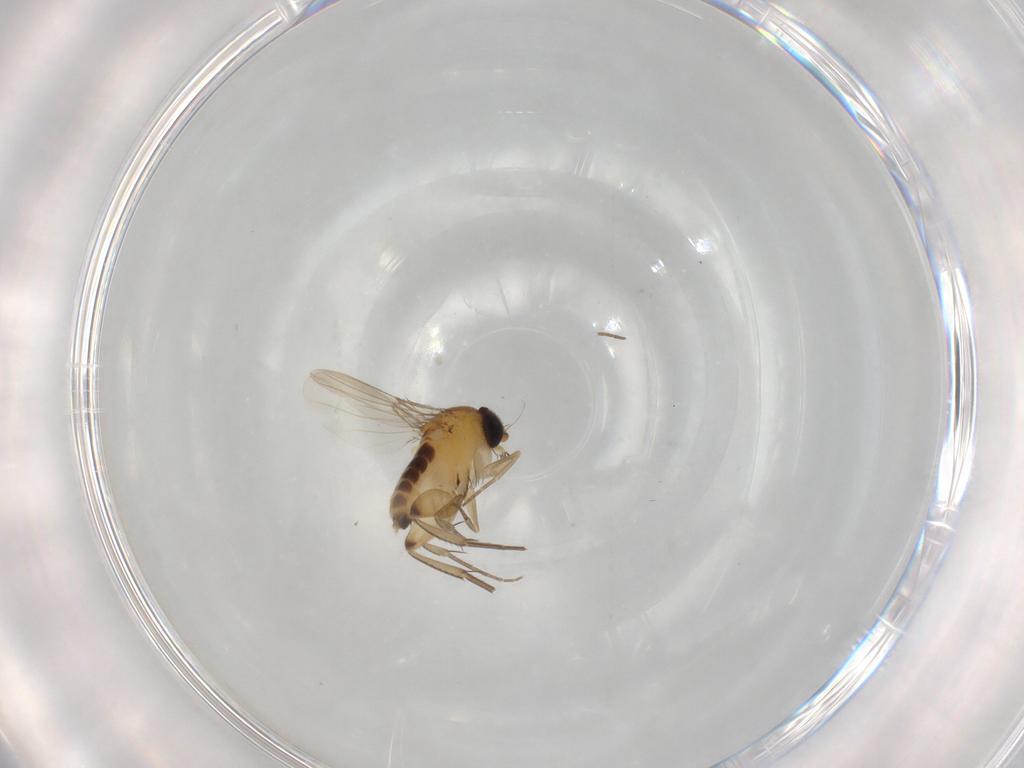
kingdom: Animalia
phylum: Arthropoda
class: Insecta
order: Diptera
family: Phoridae
